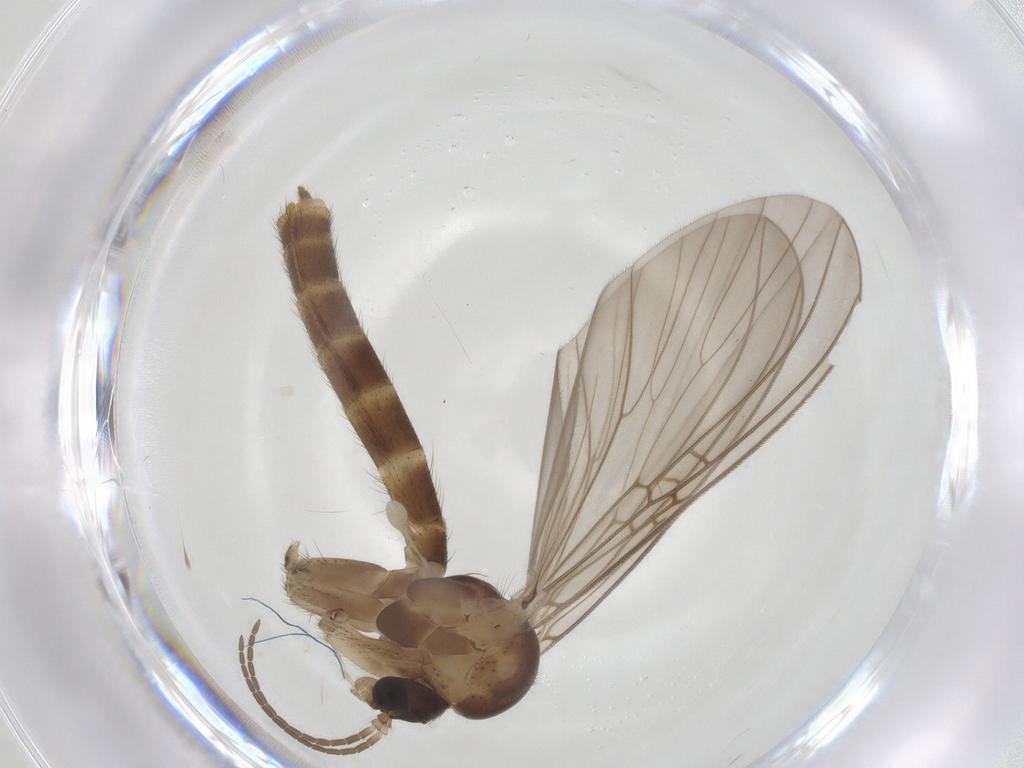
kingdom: Animalia
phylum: Arthropoda
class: Insecta
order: Diptera
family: Mycetophilidae
